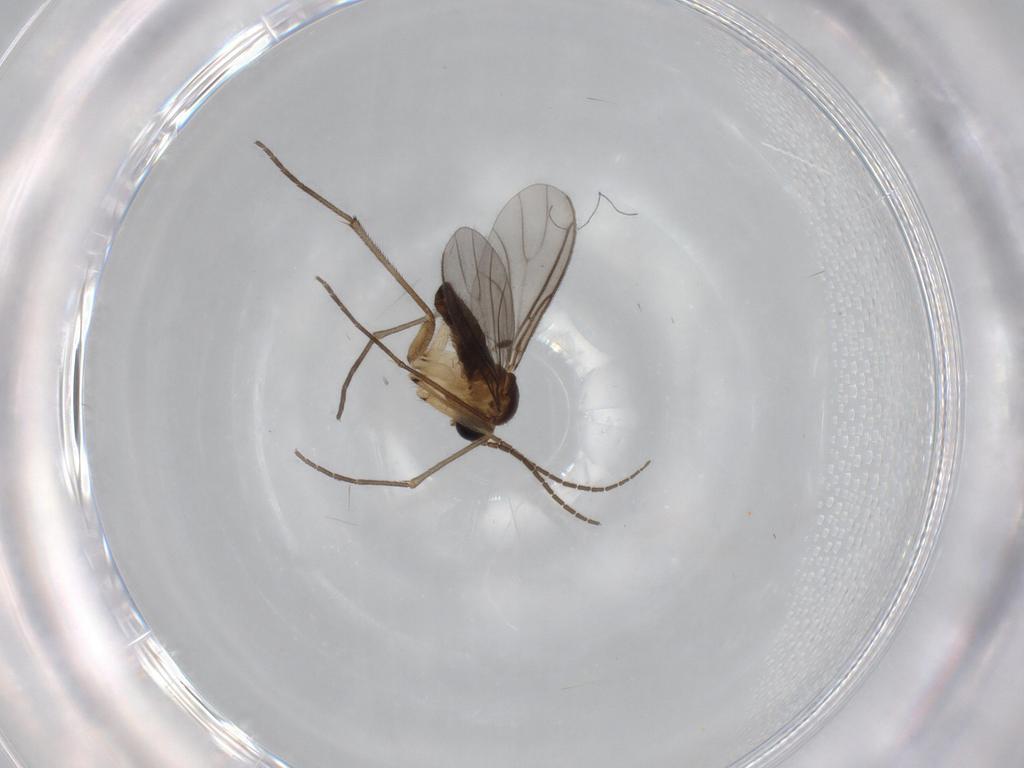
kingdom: Animalia
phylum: Arthropoda
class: Insecta
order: Diptera
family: Sciaridae
